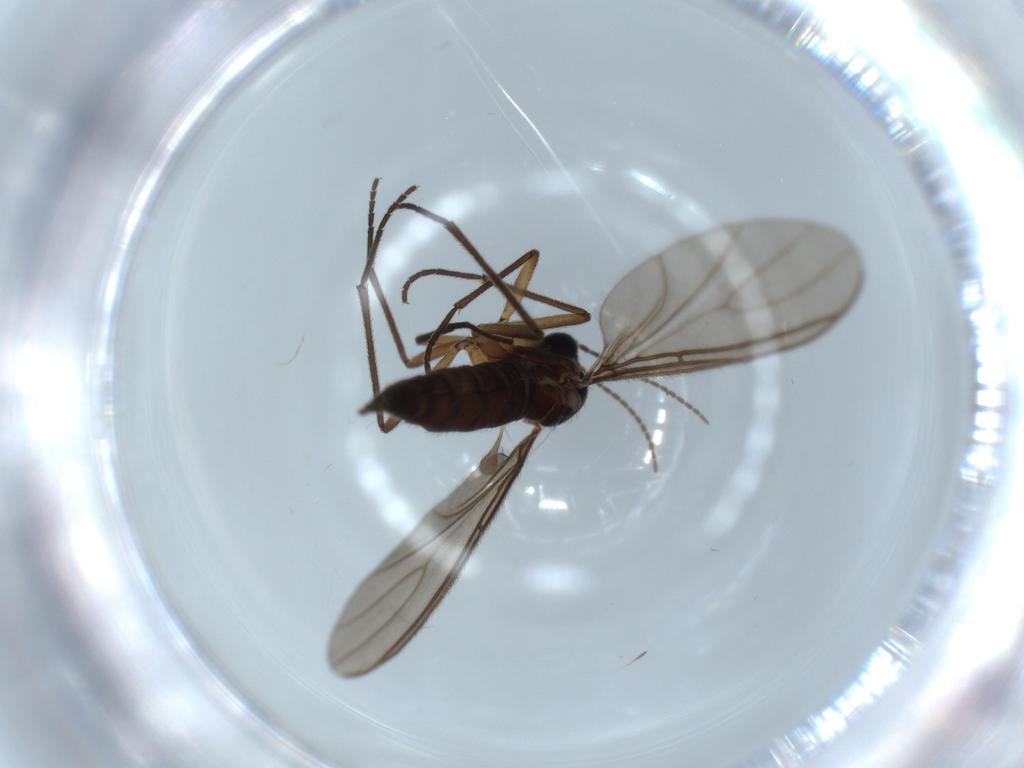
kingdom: Animalia
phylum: Arthropoda
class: Insecta
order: Diptera
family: Sciaridae
